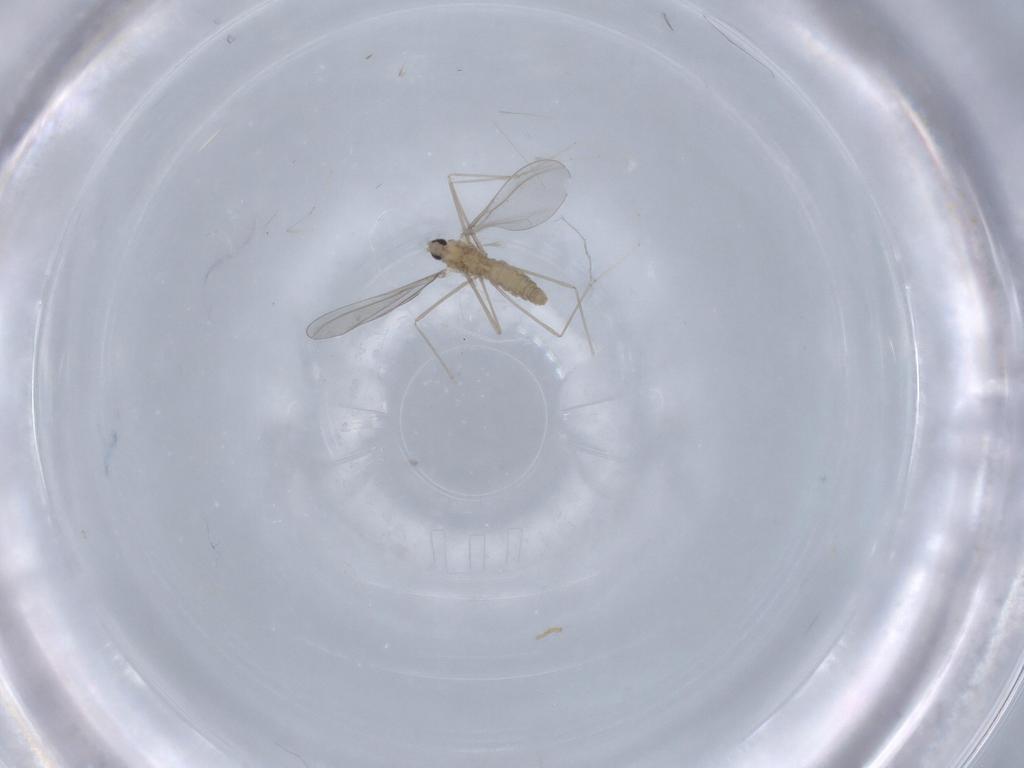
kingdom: Animalia
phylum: Arthropoda
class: Insecta
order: Diptera
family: Cecidomyiidae
